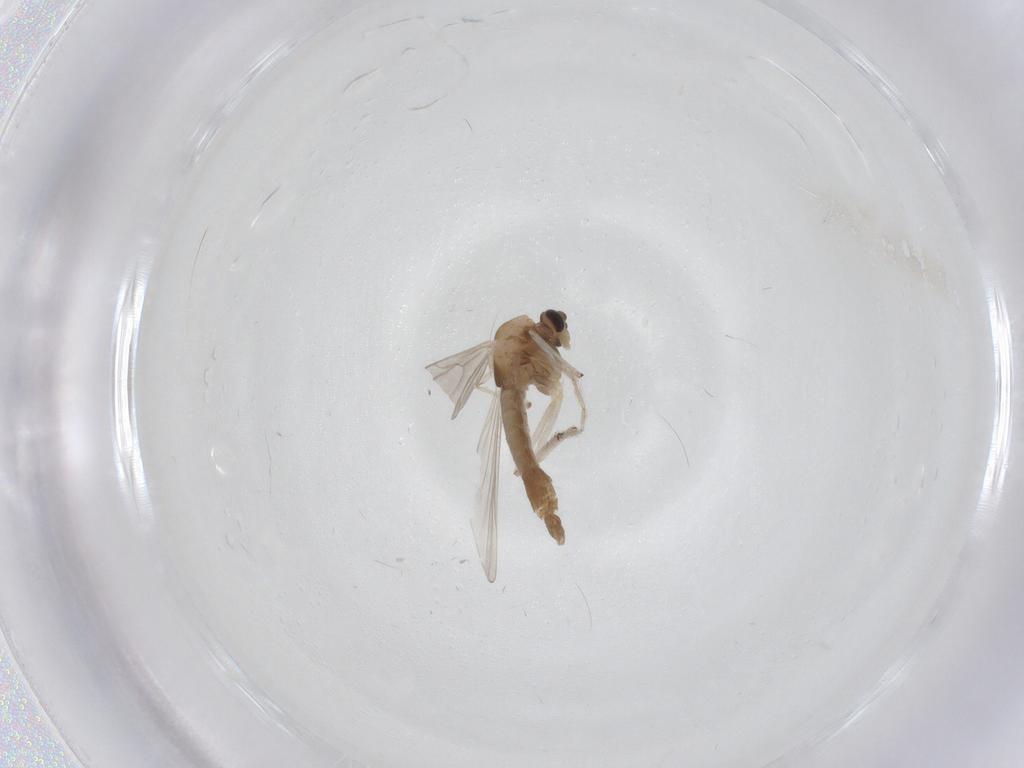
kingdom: Animalia
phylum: Arthropoda
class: Insecta
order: Diptera
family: Chironomidae
